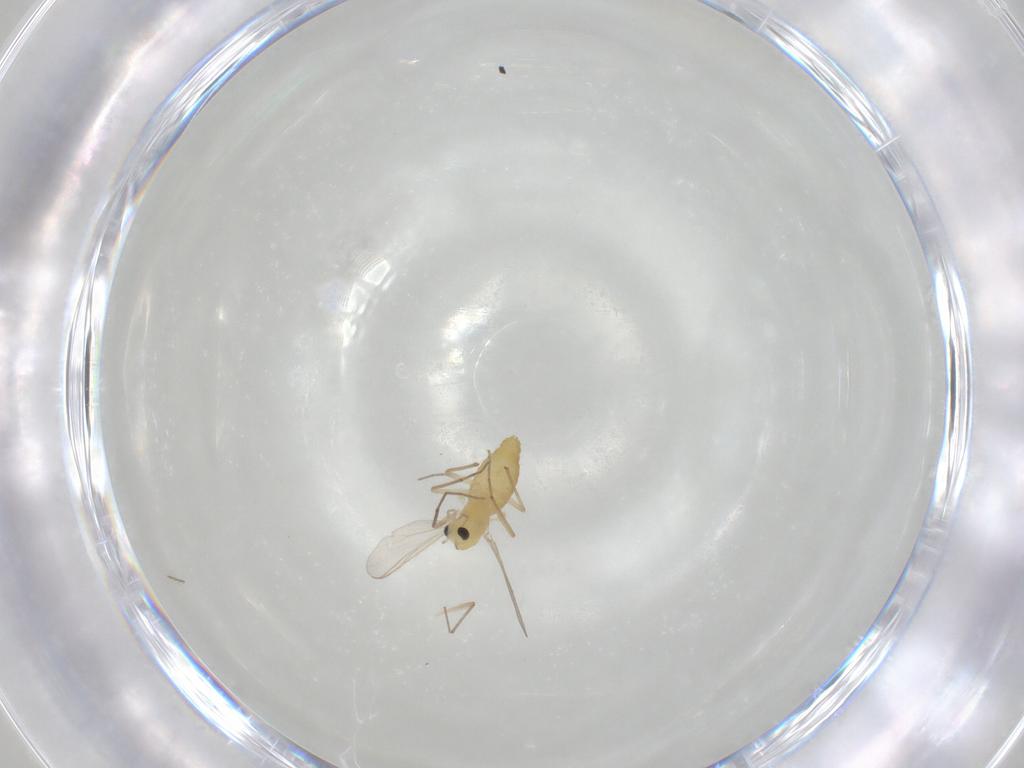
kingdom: Animalia
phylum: Arthropoda
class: Insecta
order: Diptera
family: Chironomidae
